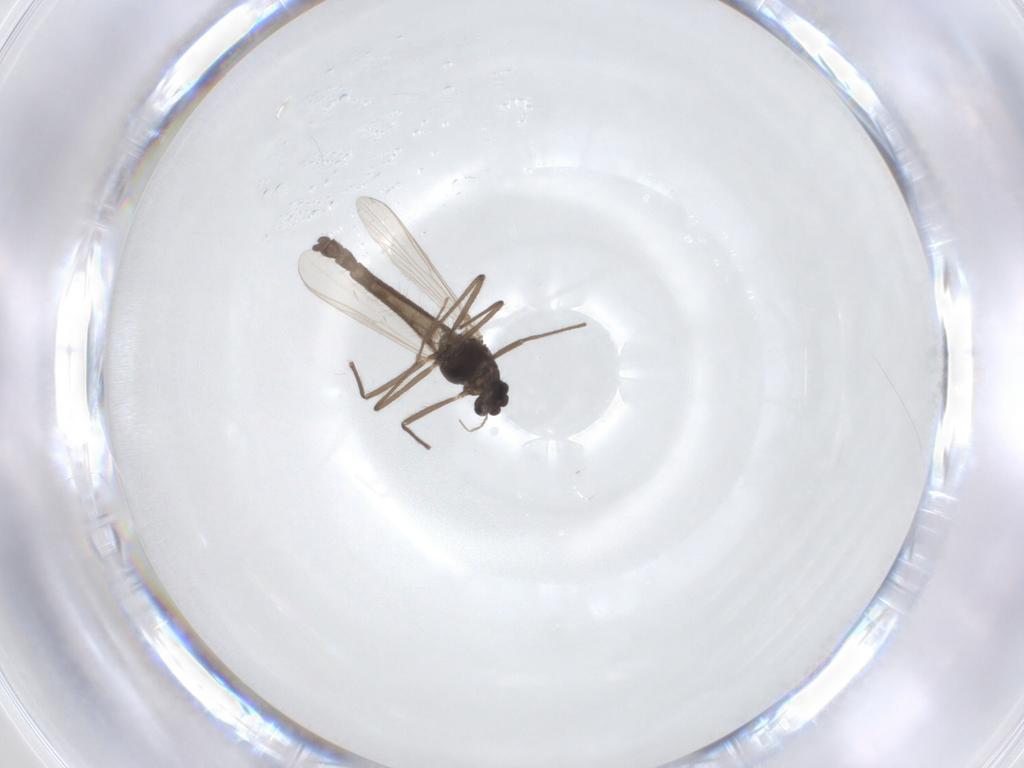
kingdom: Animalia
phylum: Arthropoda
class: Insecta
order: Diptera
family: Chironomidae
